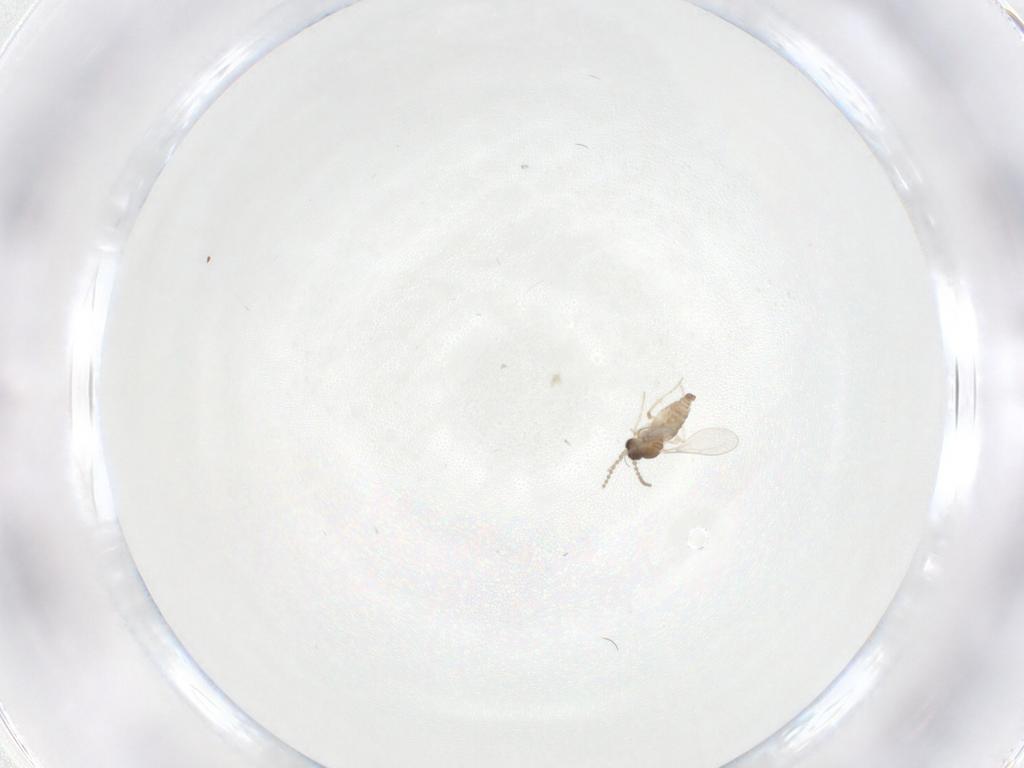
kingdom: Animalia
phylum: Arthropoda
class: Insecta
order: Diptera
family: Cecidomyiidae
